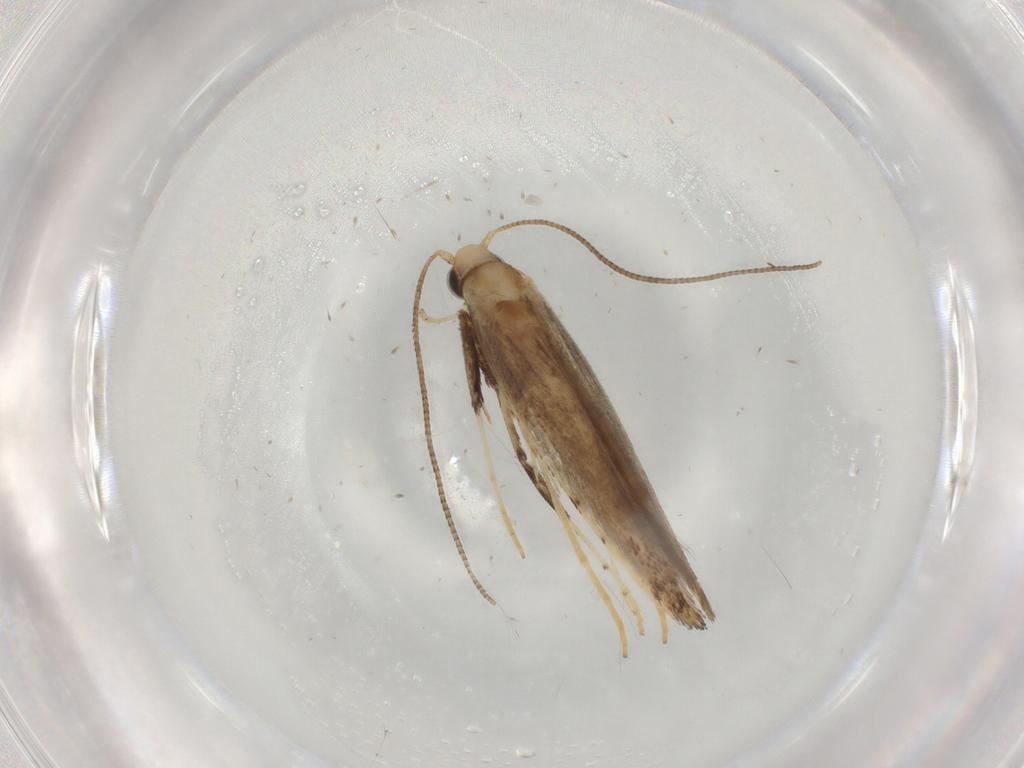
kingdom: Animalia
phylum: Arthropoda
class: Insecta
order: Lepidoptera
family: Gracillariidae
